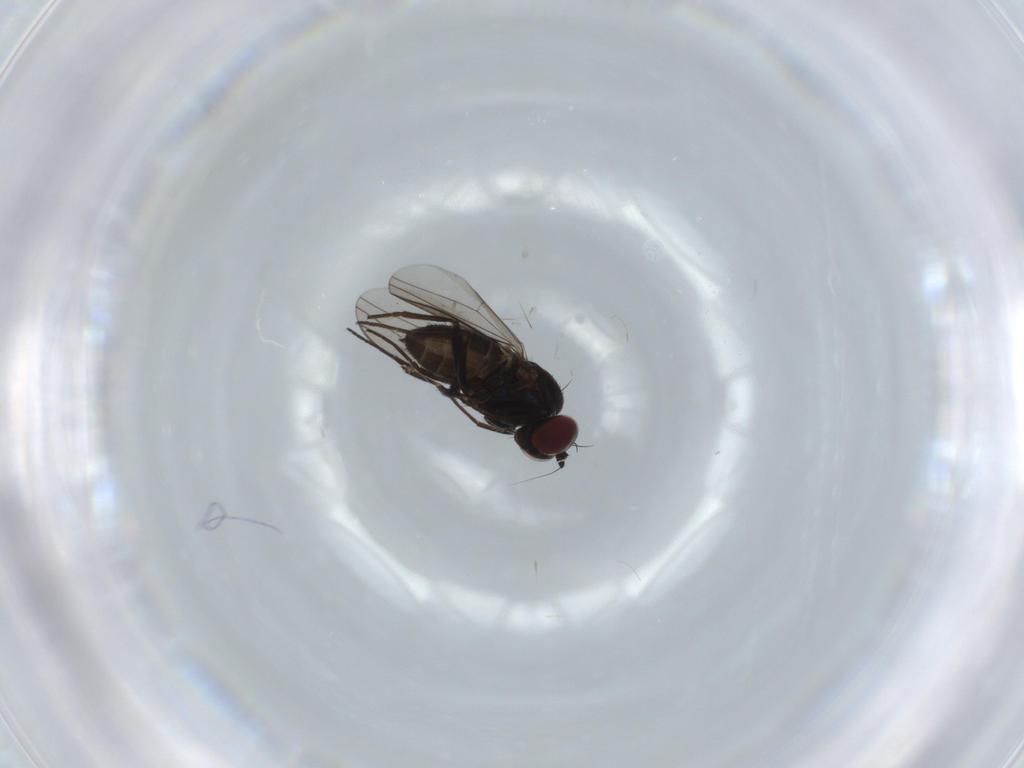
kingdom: Animalia
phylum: Arthropoda
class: Insecta
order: Diptera
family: Dolichopodidae
